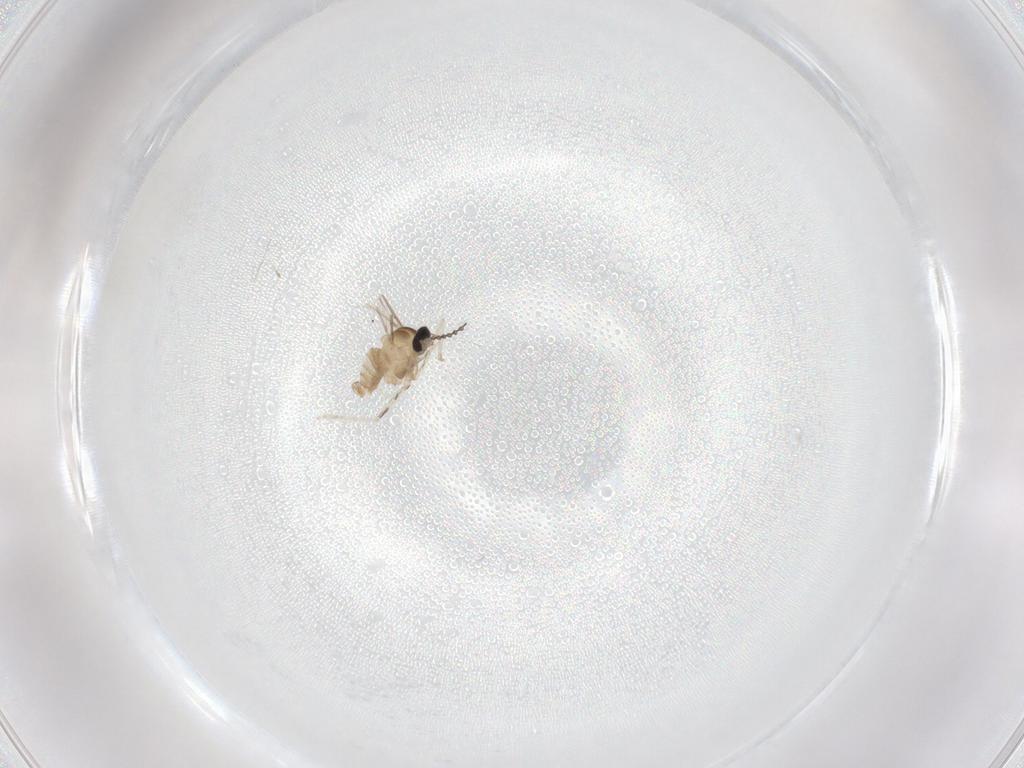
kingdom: Animalia
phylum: Arthropoda
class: Insecta
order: Diptera
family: Cecidomyiidae
